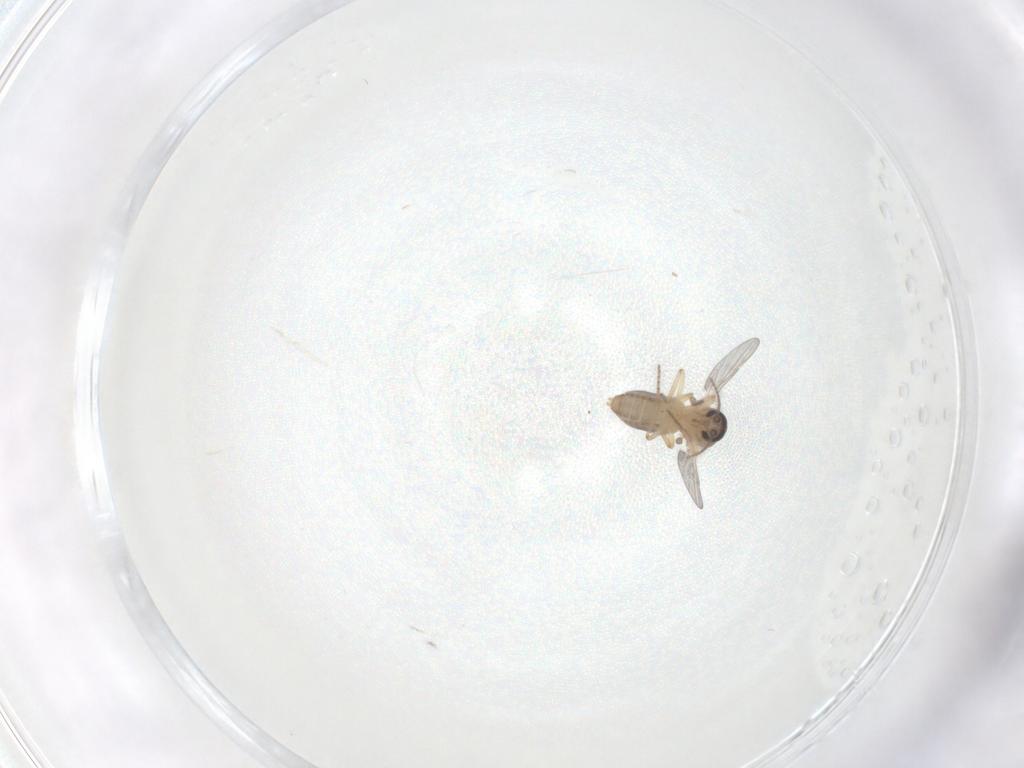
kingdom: Animalia
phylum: Arthropoda
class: Insecta
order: Diptera
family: Ceratopogonidae
